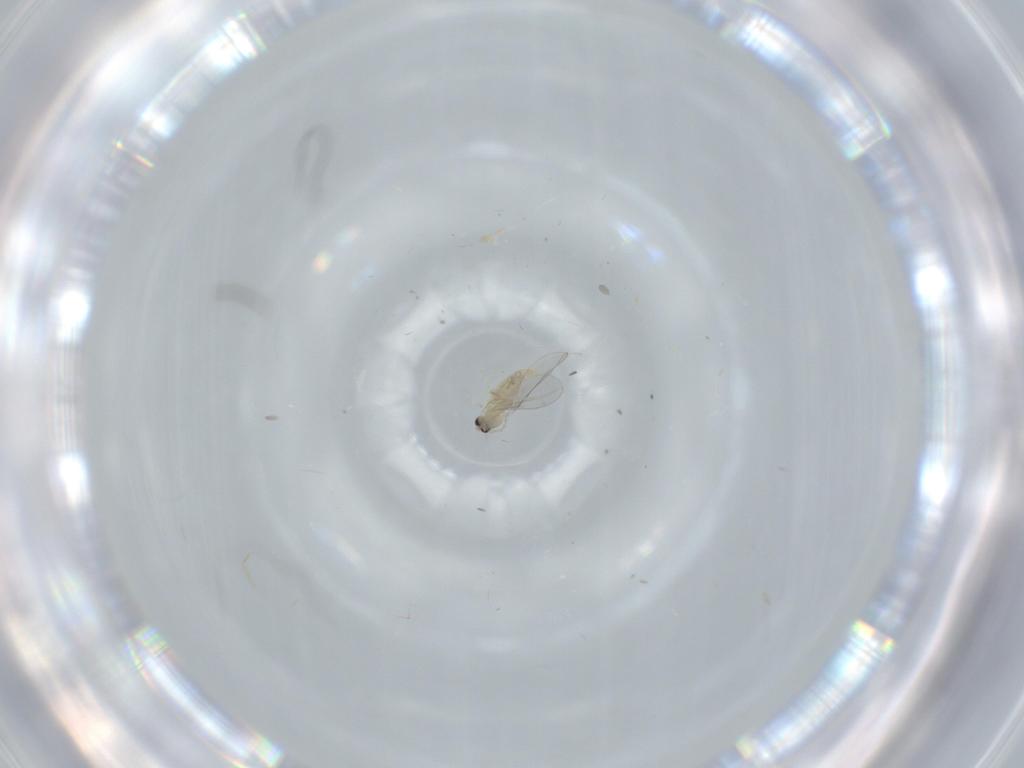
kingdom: Animalia
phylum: Arthropoda
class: Insecta
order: Diptera
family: Cecidomyiidae
